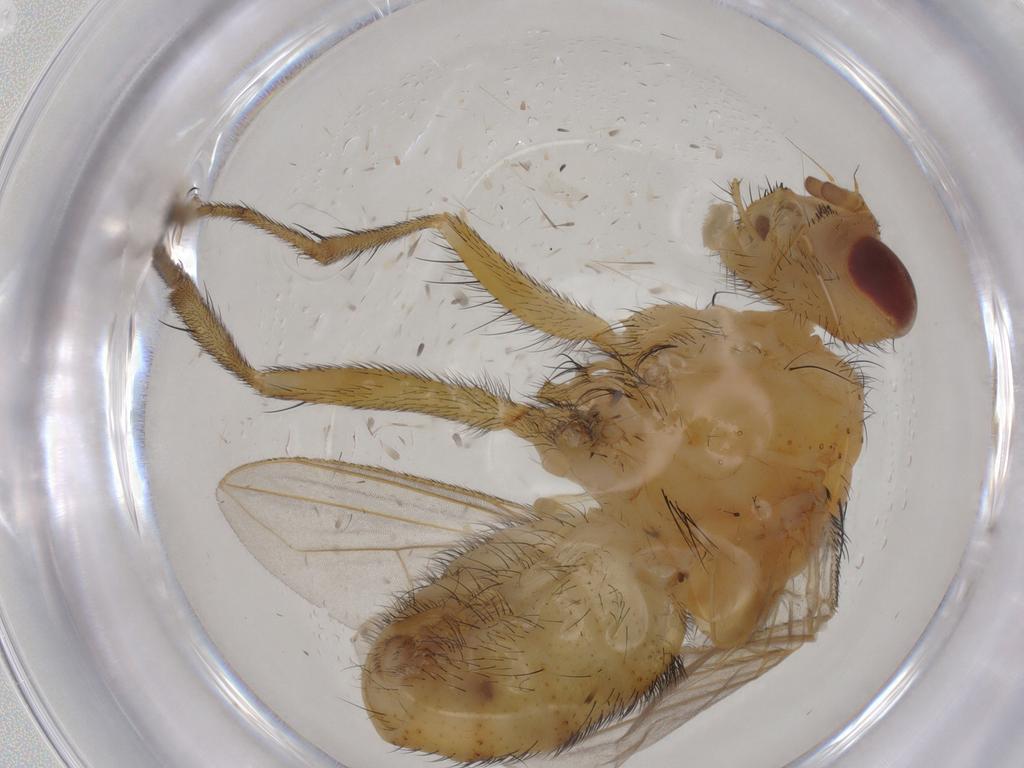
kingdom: Animalia
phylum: Arthropoda
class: Insecta
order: Diptera
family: Tachinidae
